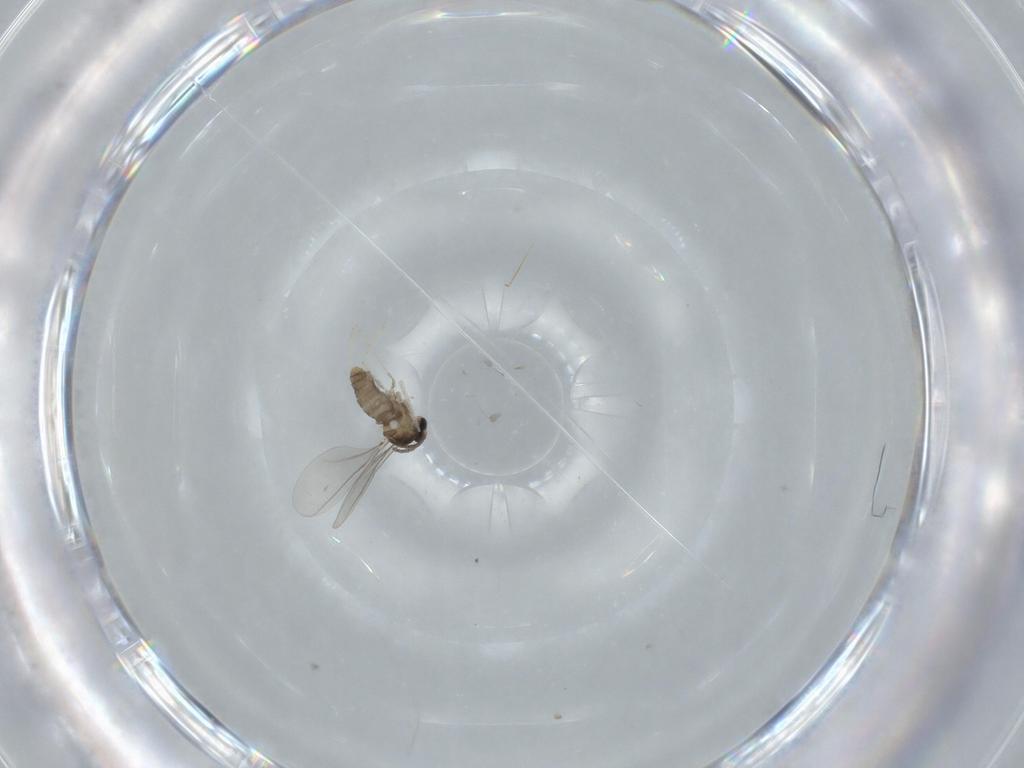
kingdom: Animalia
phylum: Arthropoda
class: Insecta
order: Diptera
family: Cecidomyiidae
